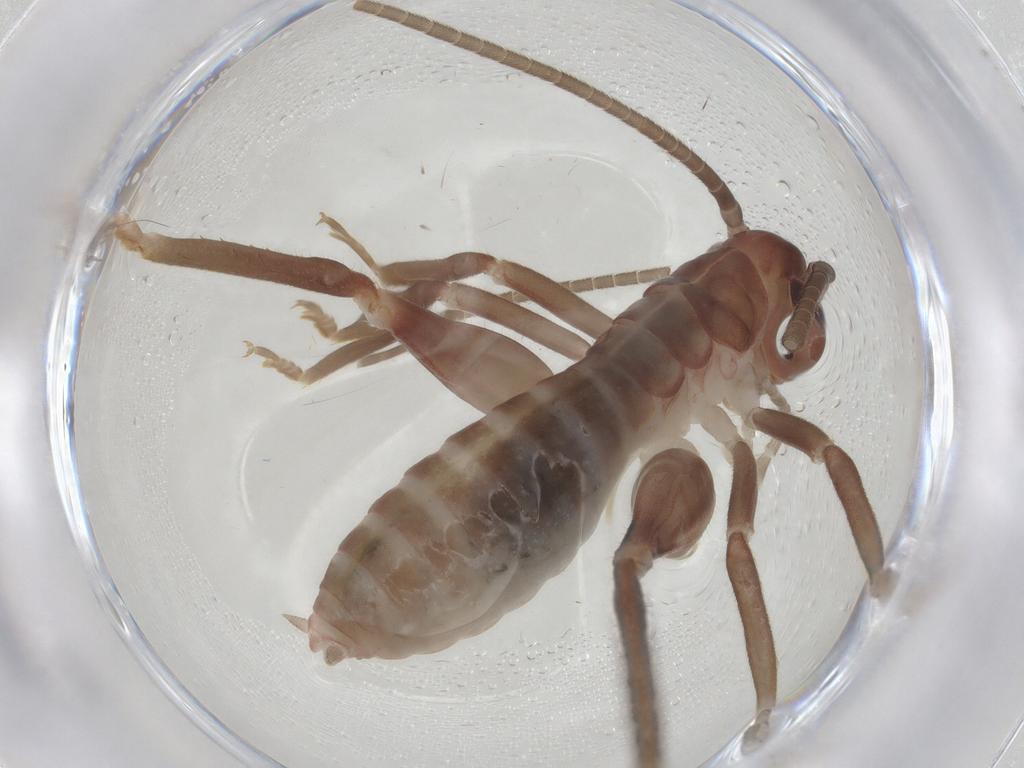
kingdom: Animalia
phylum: Arthropoda
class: Insecta
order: Orthoptera
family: Gryllacrididae
